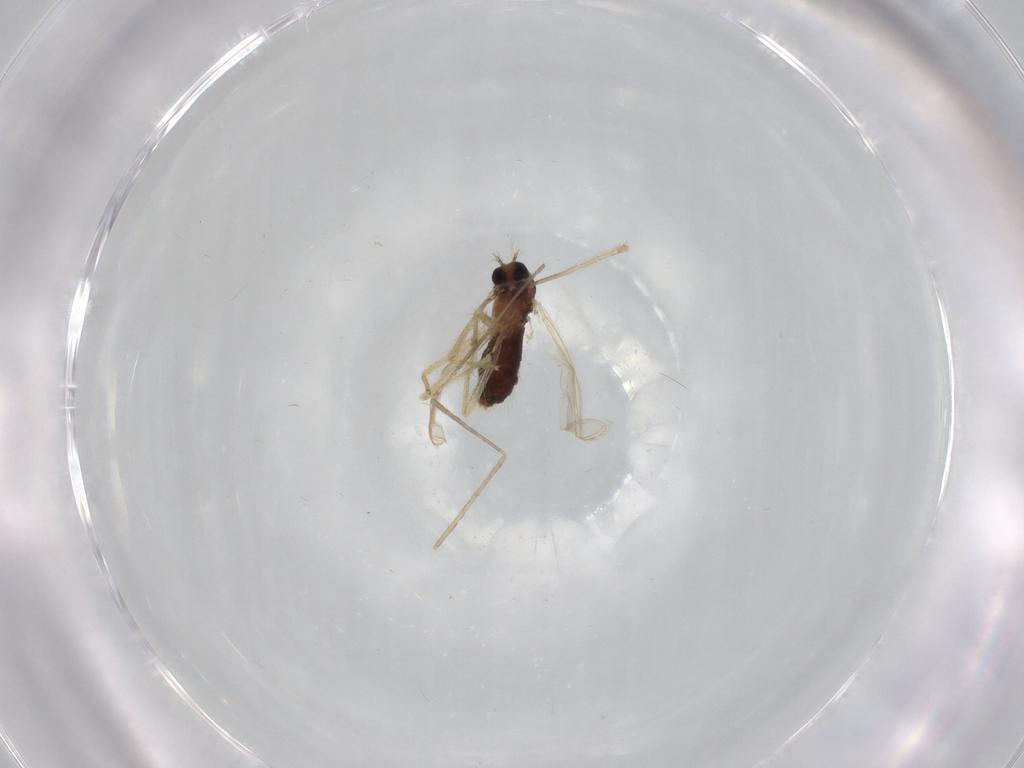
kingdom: Animalia
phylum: Arthropoda
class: Insecta
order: Diptera
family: Cecidomyiidae
